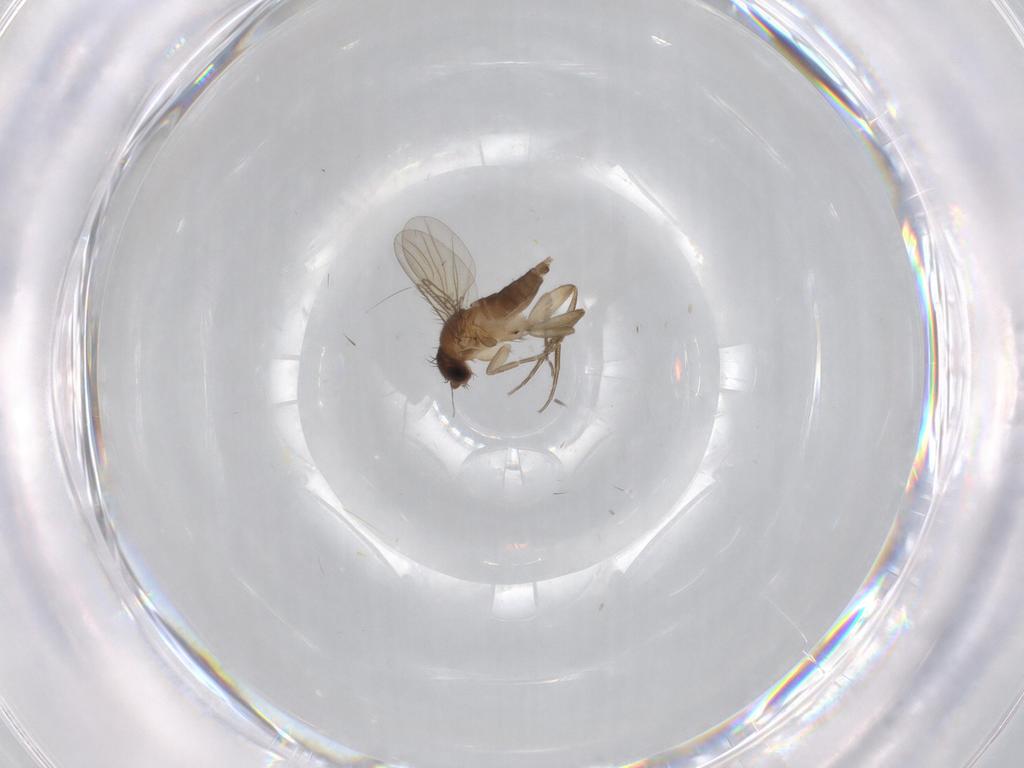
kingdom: Animalia
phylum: Arthropoda
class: Insecta
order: Diptera
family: Phoridae
